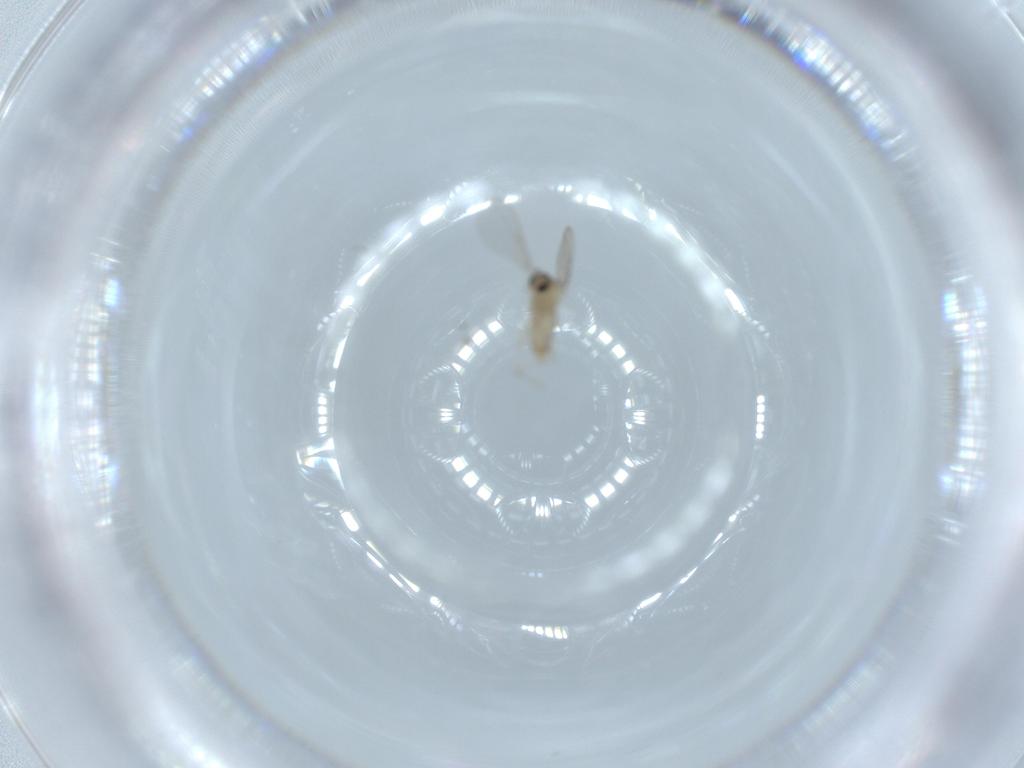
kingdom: Animalia
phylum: Arthropoda
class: Insecta
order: Diptera
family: Cecidomyiidae
